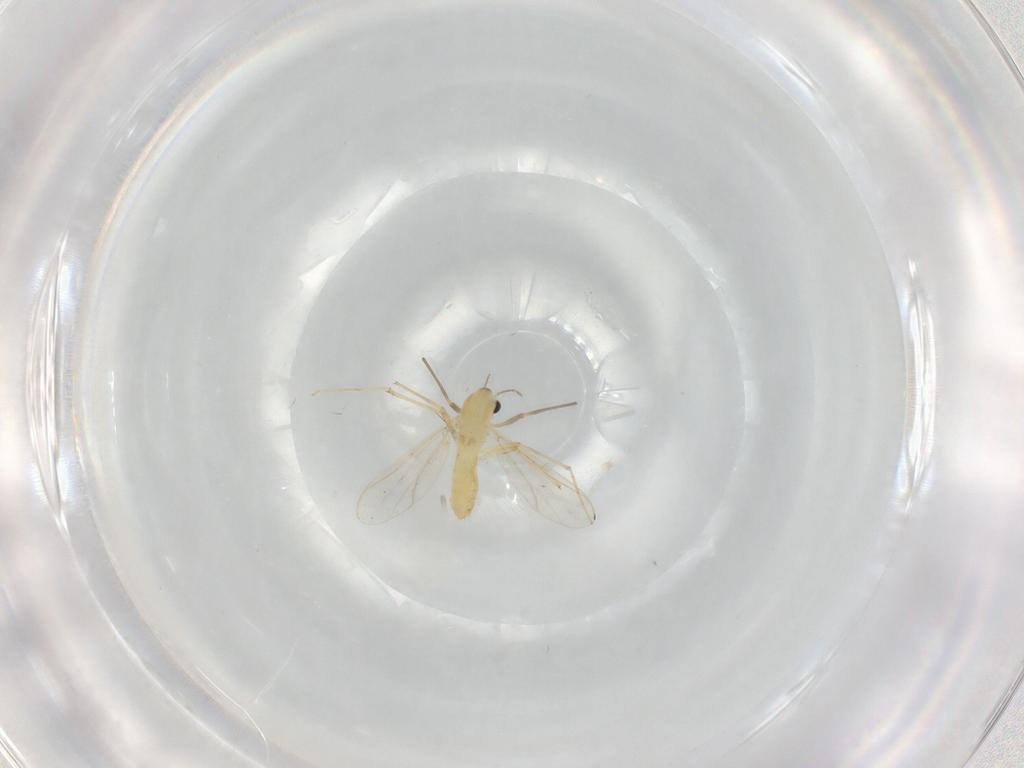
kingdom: Animalia
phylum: Arthropoda
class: Insecta
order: Diptera
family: Chironomidae
